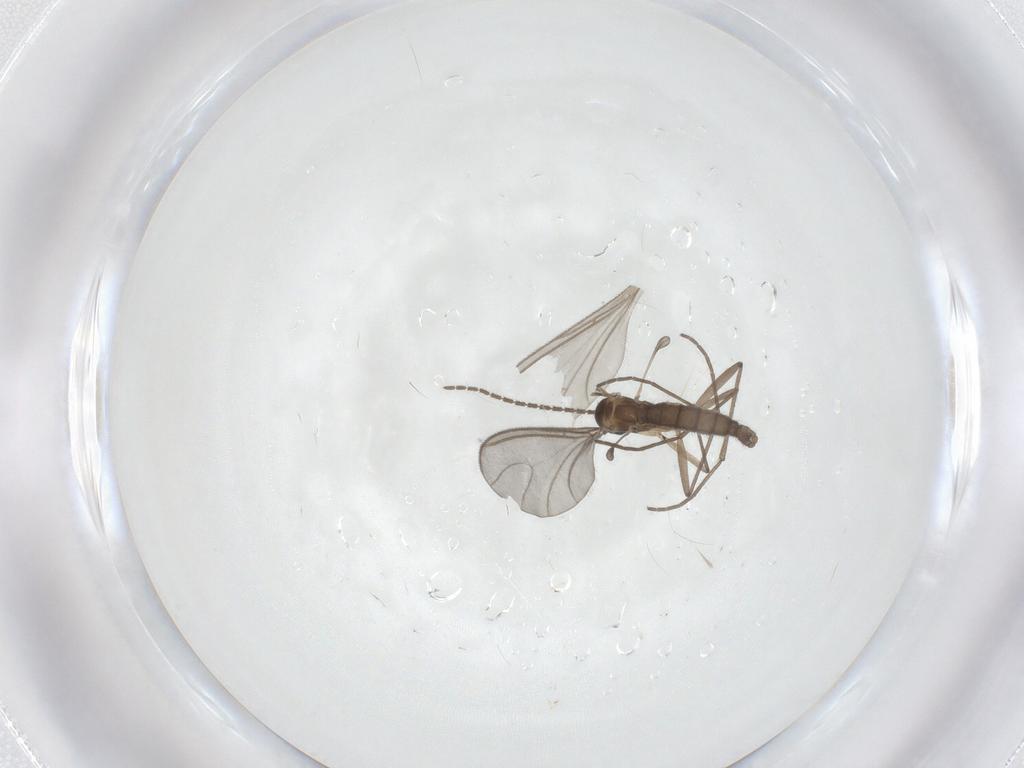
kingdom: Animalia
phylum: Arthropoda
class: Insecta
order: Diptera
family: Sciaridae
